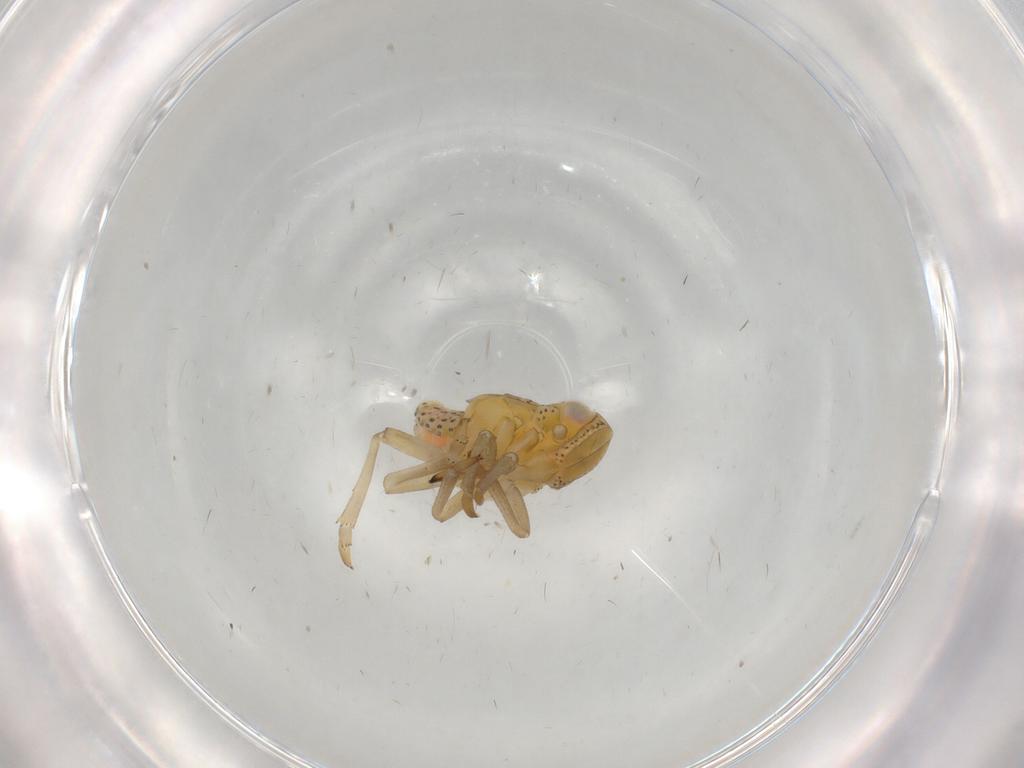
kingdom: Animalia
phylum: Arthropoda
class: Insecta
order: Hemiptera
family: Tropiduchidae
